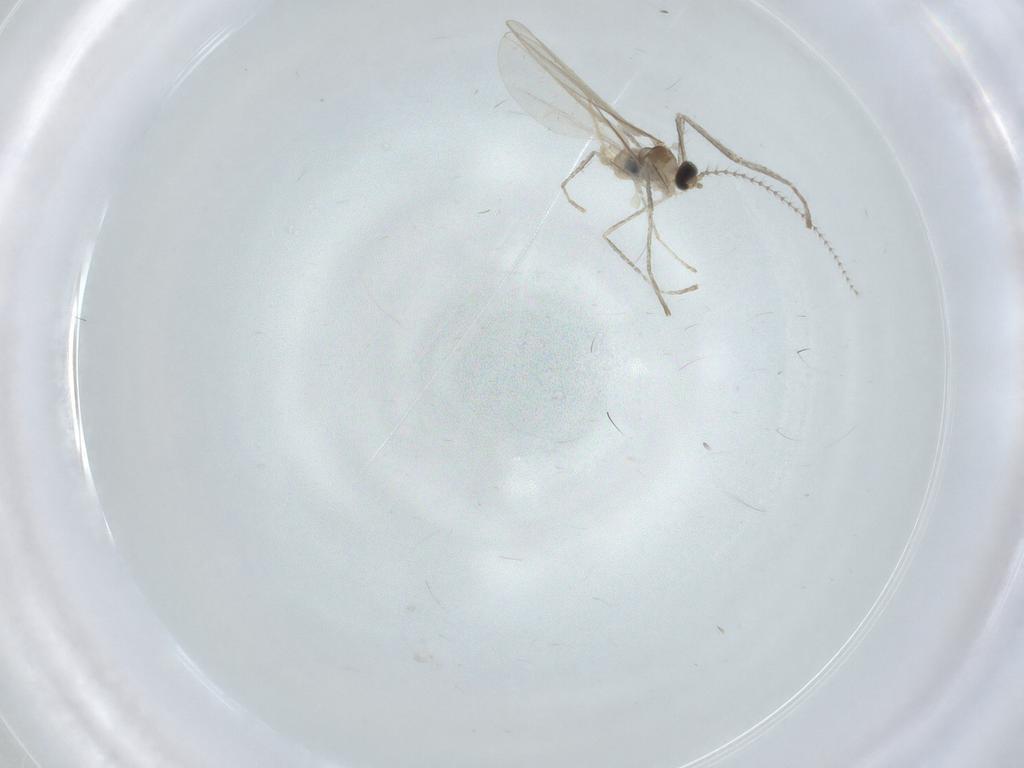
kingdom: Animalia
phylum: Arthropoda
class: Insecta
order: Diptera
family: Cecidomyiidae
